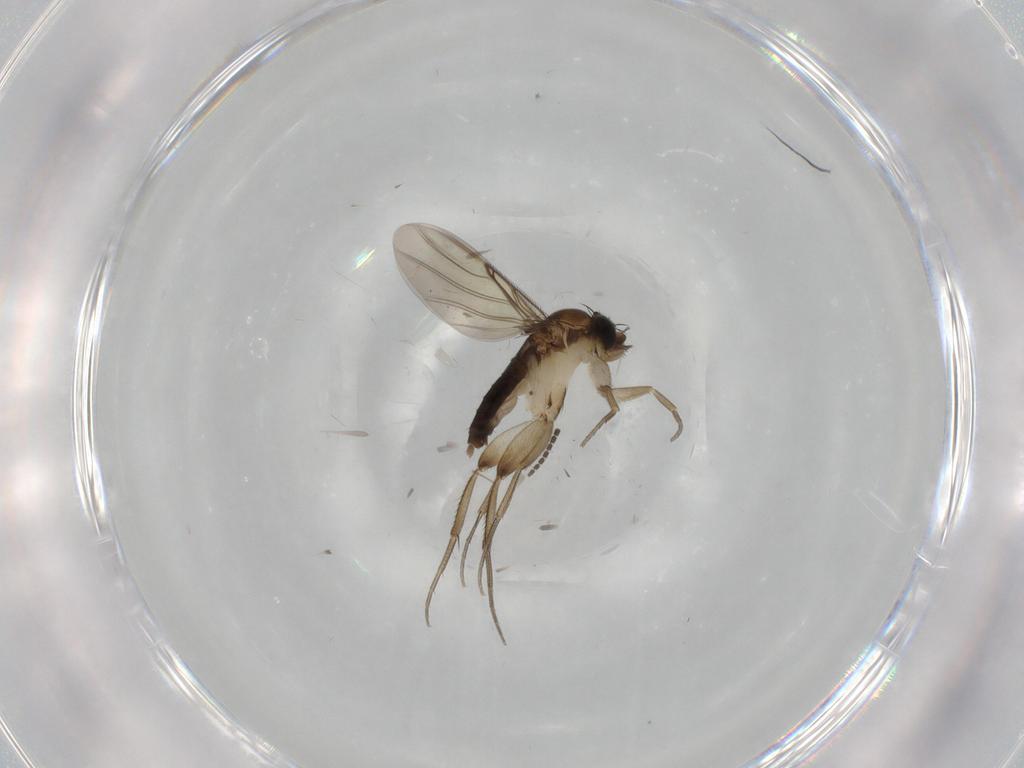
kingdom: Animalia
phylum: Arthropoda
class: Insecta
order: Diptera
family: Phoridae
